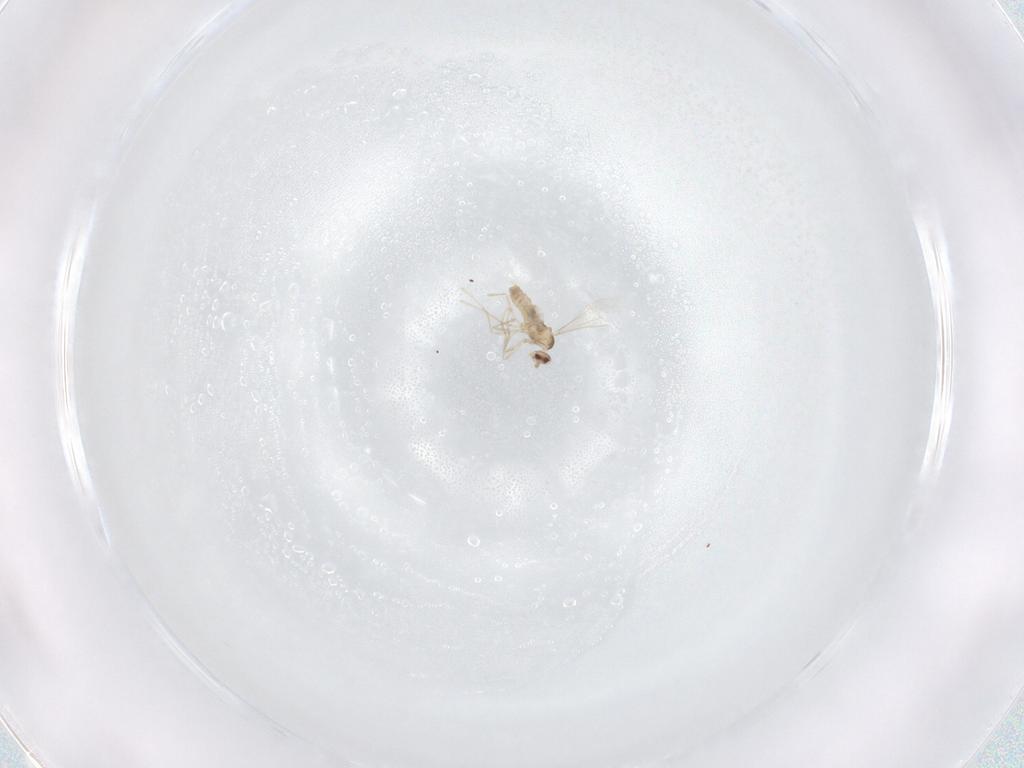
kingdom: Animalia
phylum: Arthropoda
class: Insecta
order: Diptera
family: Cecidomyiidae
